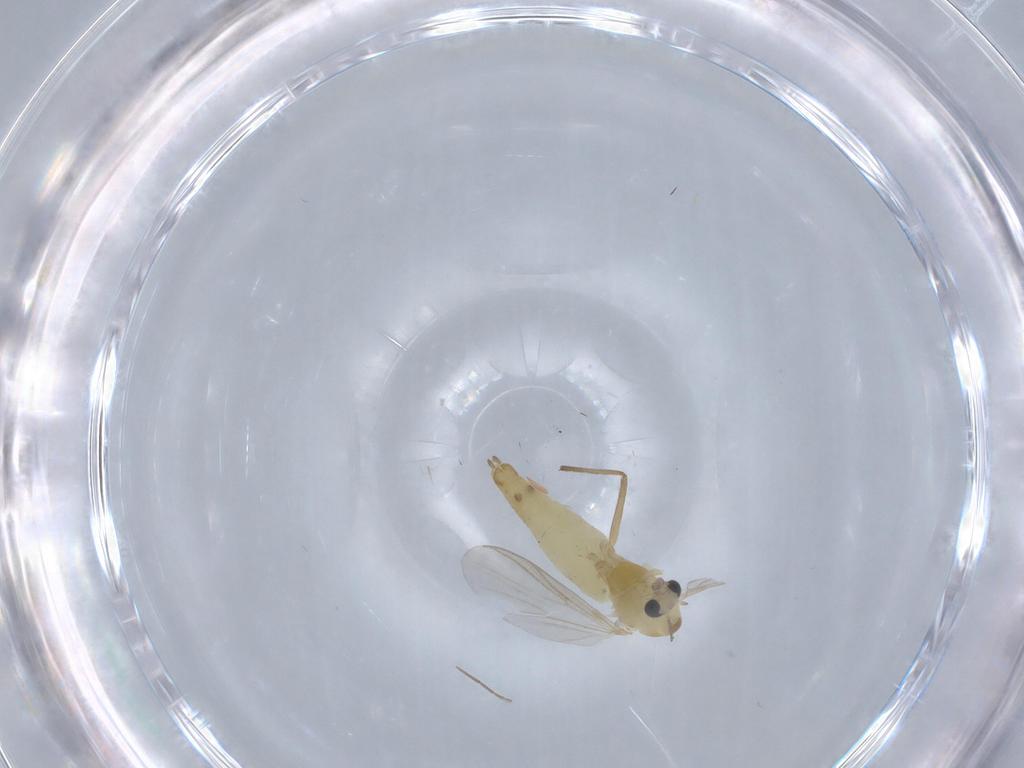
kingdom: Animalia
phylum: Arthropoda
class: Insecta
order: Diptera
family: Chironomidae
